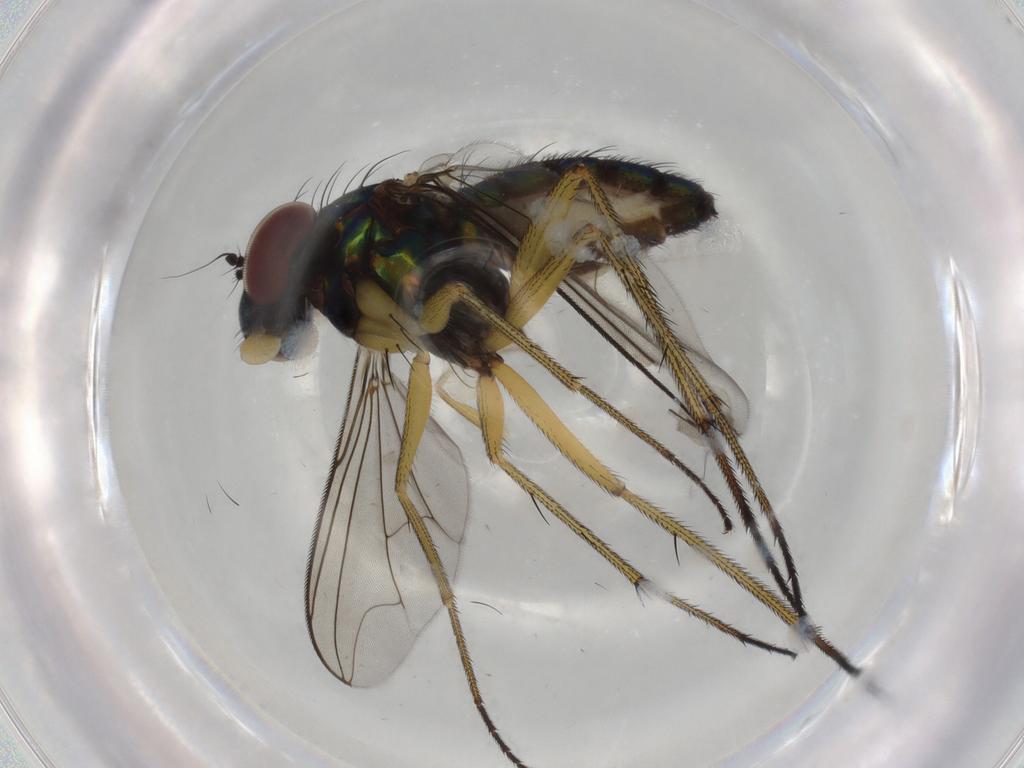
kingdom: Animalia
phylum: Arthropoda
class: Insecta
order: Diptera
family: Dolichopodidae
